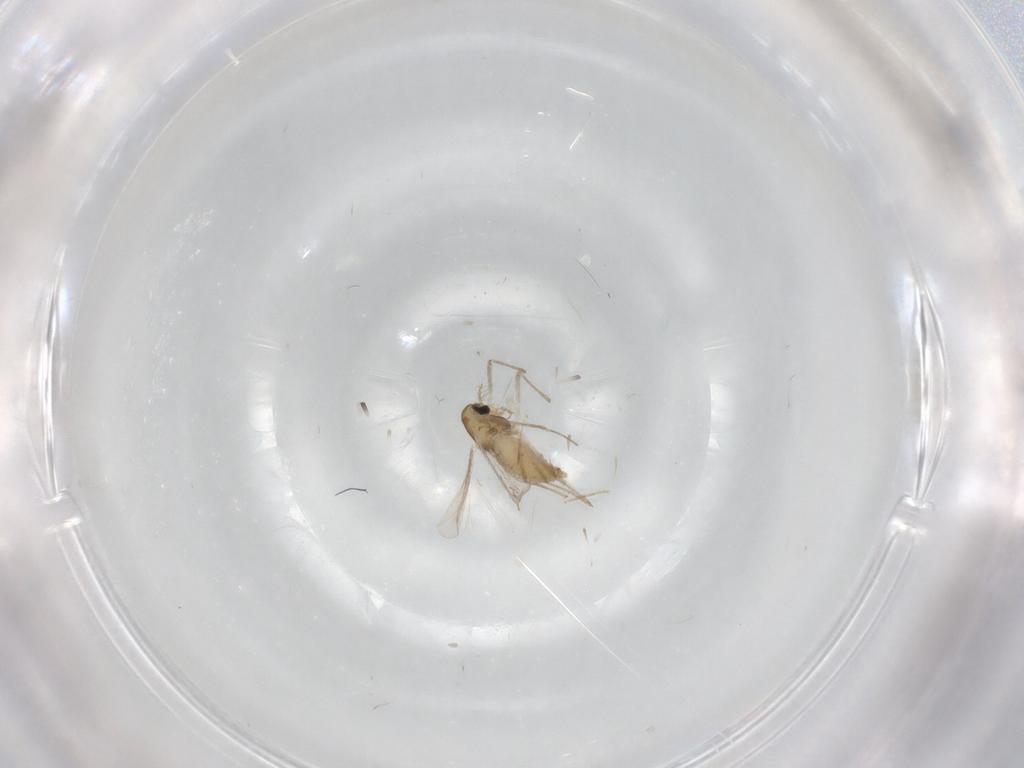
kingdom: Animalia
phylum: Arthropoda
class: Insecta
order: Diptera
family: Chironomidae
